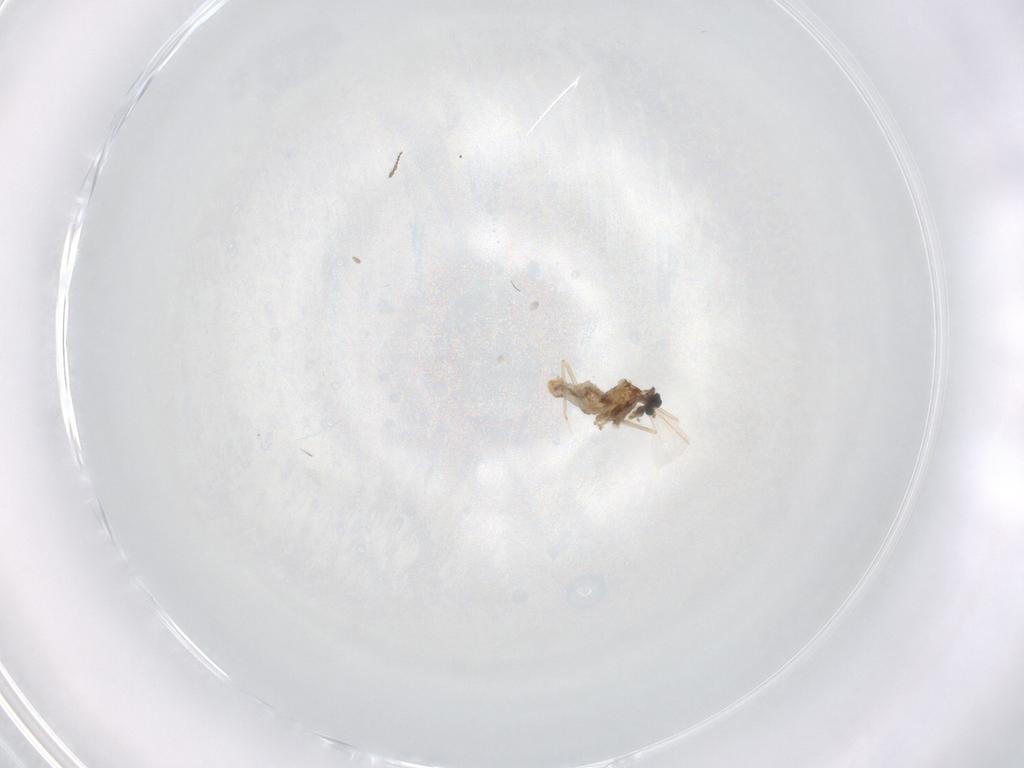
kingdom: Animalia
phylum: Arthropoda
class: Insecta
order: Diptera
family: Cecidomyiidae
